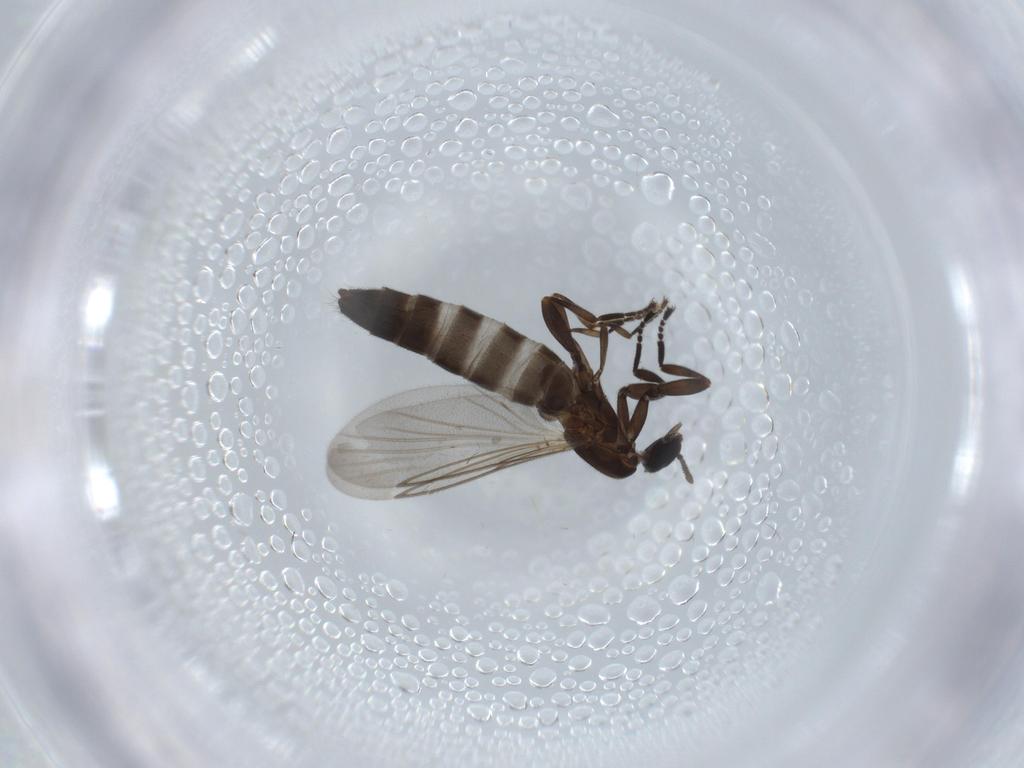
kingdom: Animalia
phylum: Arthropoda
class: Insecta
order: Diptera
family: Scatopsidae
